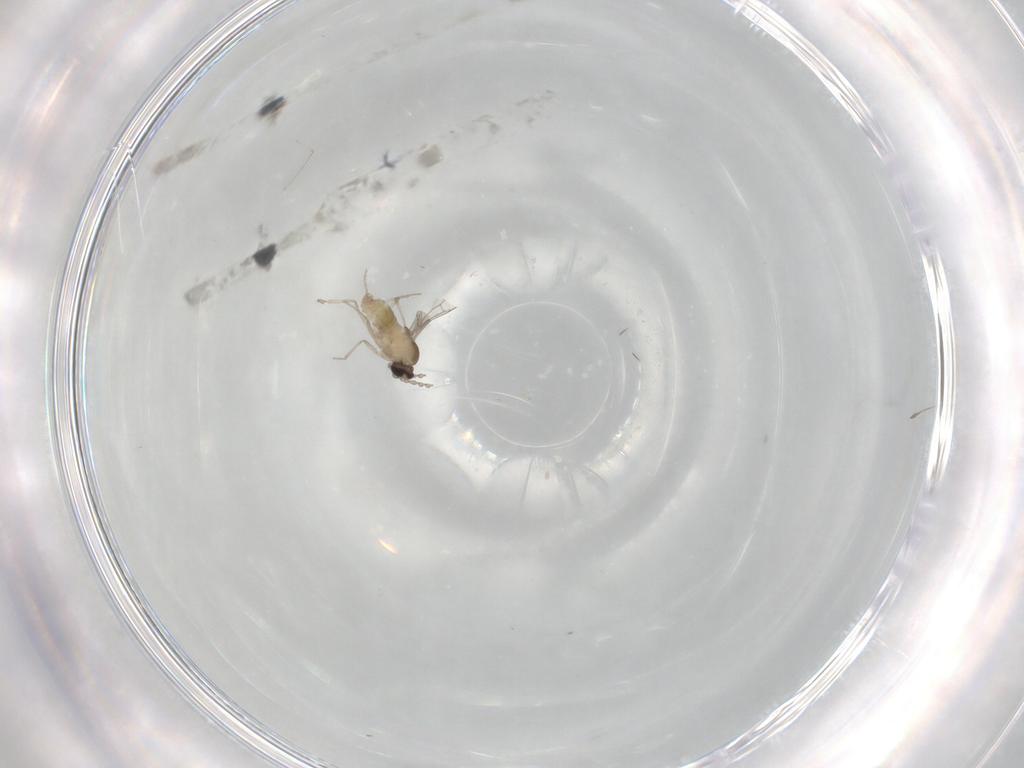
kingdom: Animalia
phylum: Arthropoda
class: Insecta
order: Diptera
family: Cecidomyiidae
